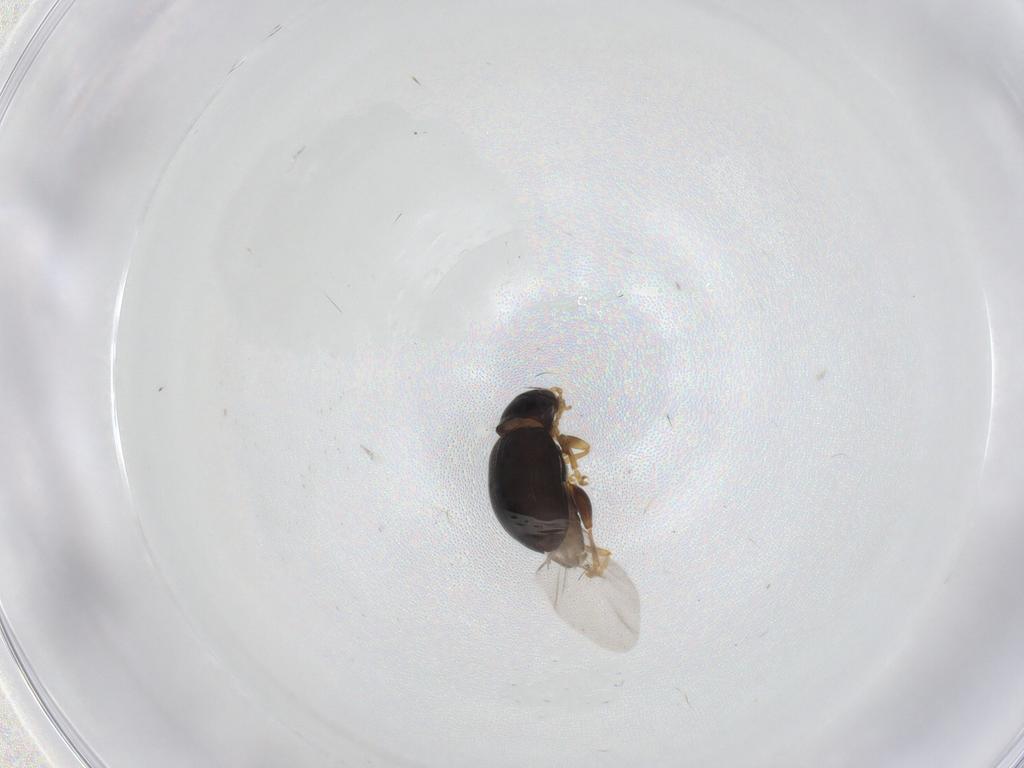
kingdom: Animalia
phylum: Arthropoda
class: Insecta
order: Coleoptera
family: Chrysomelidae
